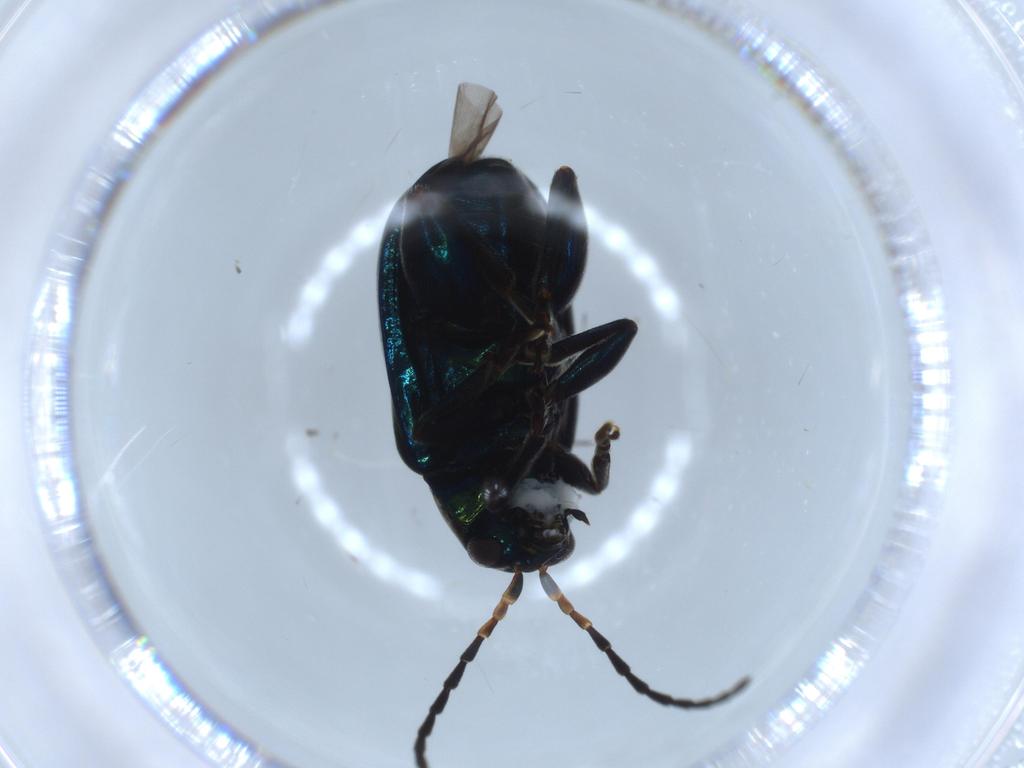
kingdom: Animalia
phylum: Arthropoda
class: Insecta
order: Coleoptera
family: Chrysomelidae
